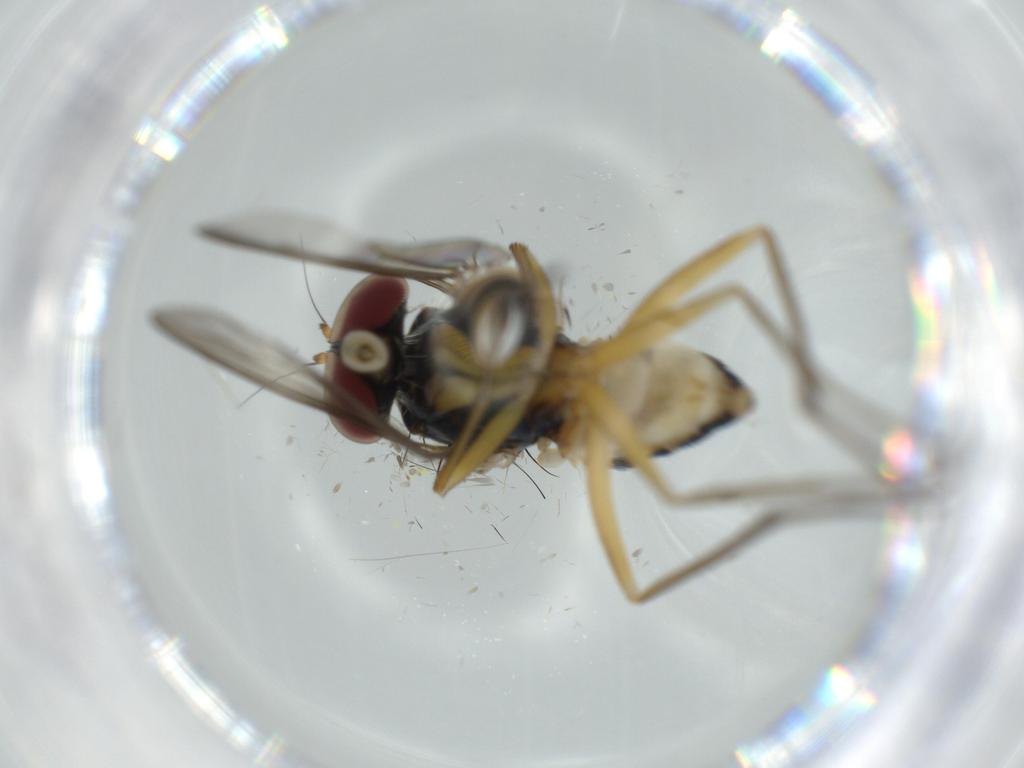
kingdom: Animalia
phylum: Arthropoda
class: Insecta
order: Diptera
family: Dolichopodidae
